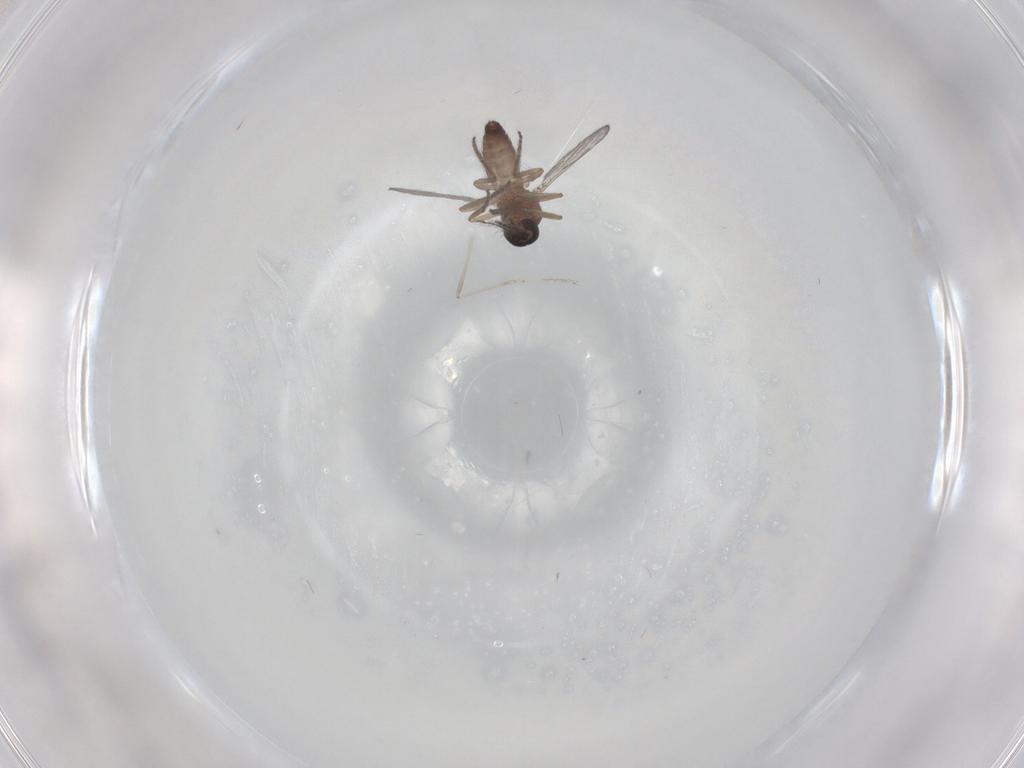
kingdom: Animalia
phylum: Arthropoda
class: Insecta
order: Diptera
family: Ceratopogonidae
